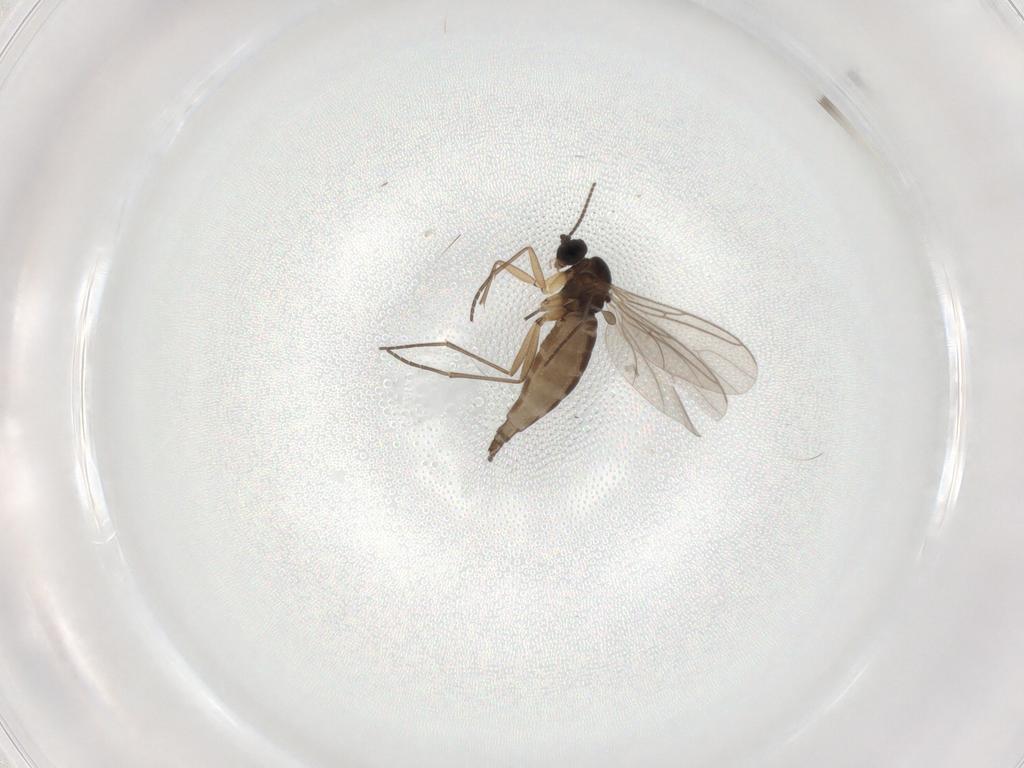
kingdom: Animalia
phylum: Arthropoda
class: Insecta
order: Diptera
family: Sciaridae
